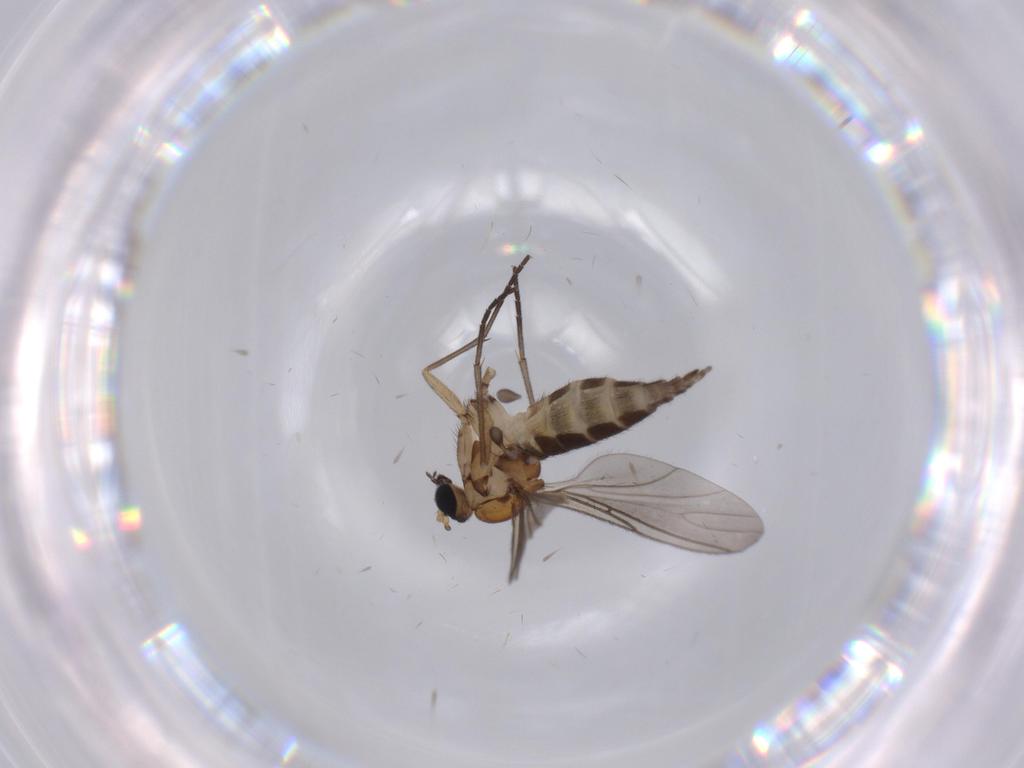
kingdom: Animalia
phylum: Arthropoda
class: Insecta
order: Diptera
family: Sciaridae
